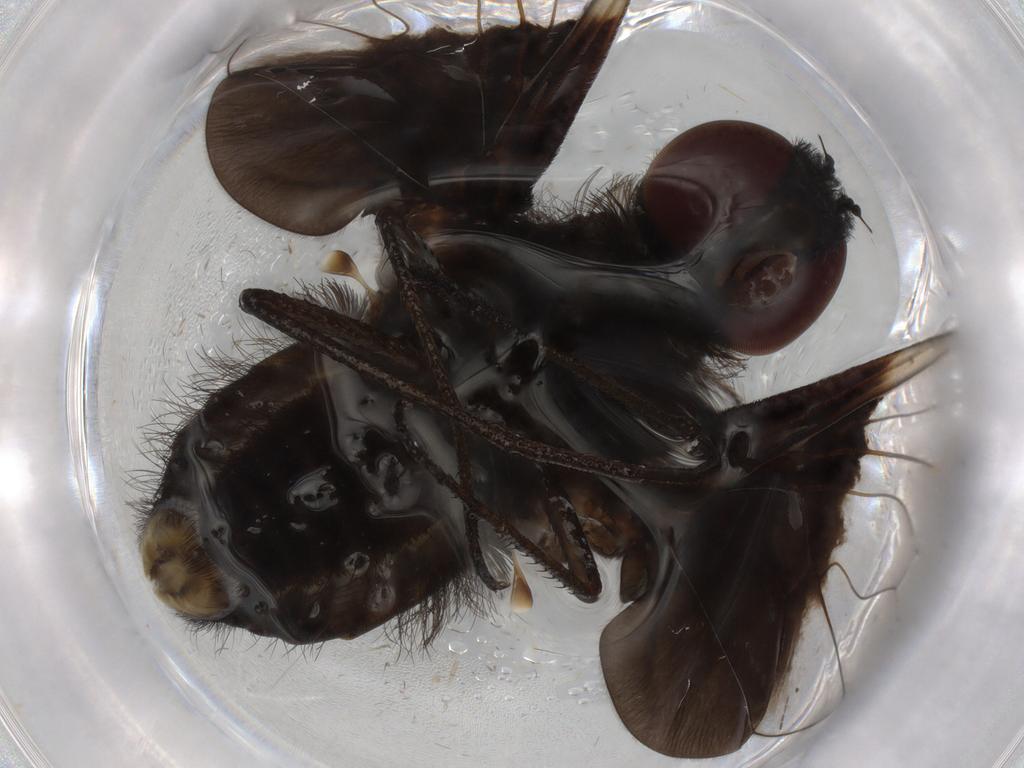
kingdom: Animalia
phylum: Arthropoda
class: Insecta
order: Diptera
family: Chironomidae
